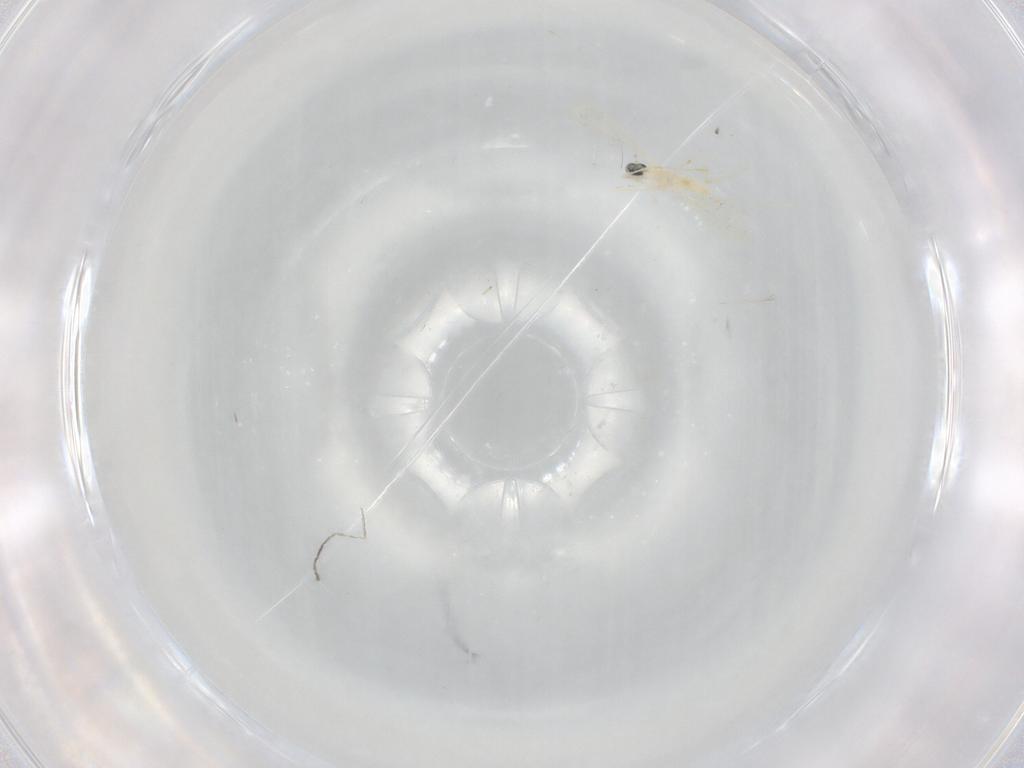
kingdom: Animalia
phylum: Arthropoda
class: Insecta
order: Diptera
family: Cecidomyiidae
